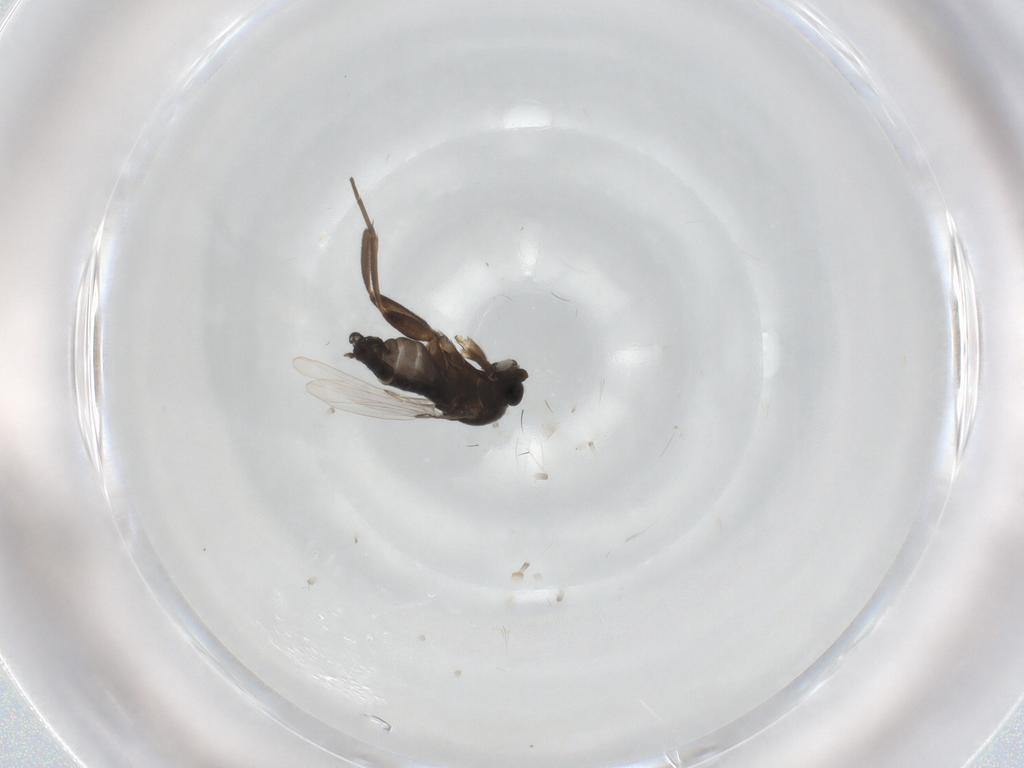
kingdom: Animalia
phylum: Arthropoda
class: Insecta
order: Diptera
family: Phoridae
